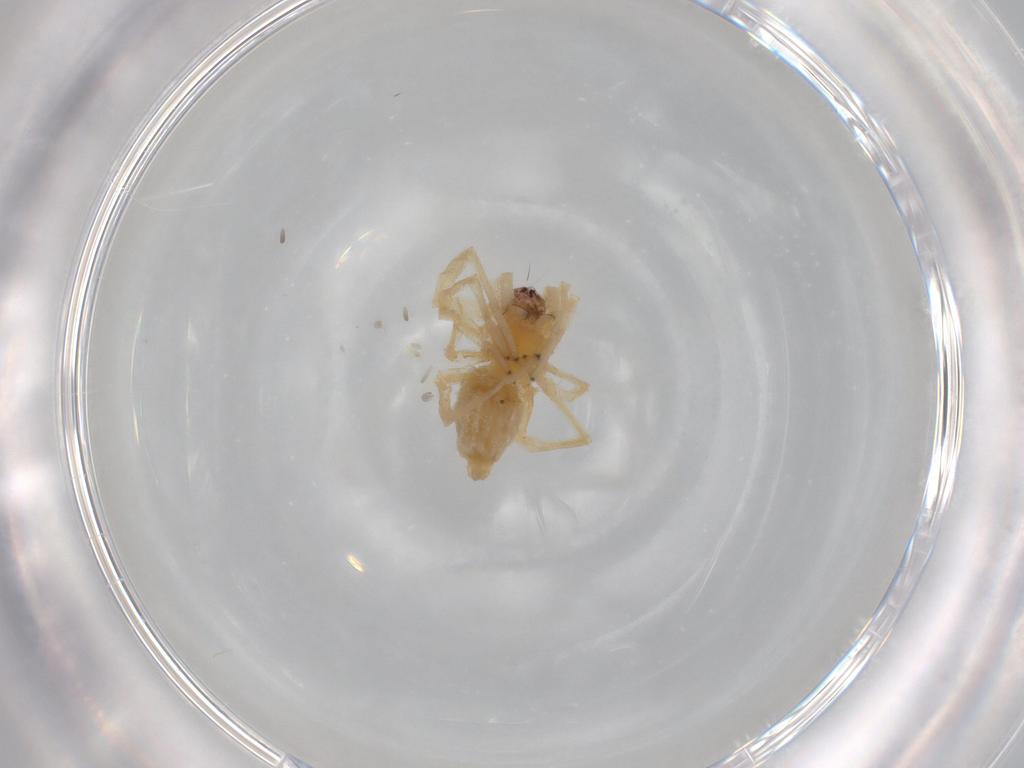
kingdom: Animalia
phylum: Arthropoda
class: Arachnida
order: Araneae
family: Cheiracanthiidae
